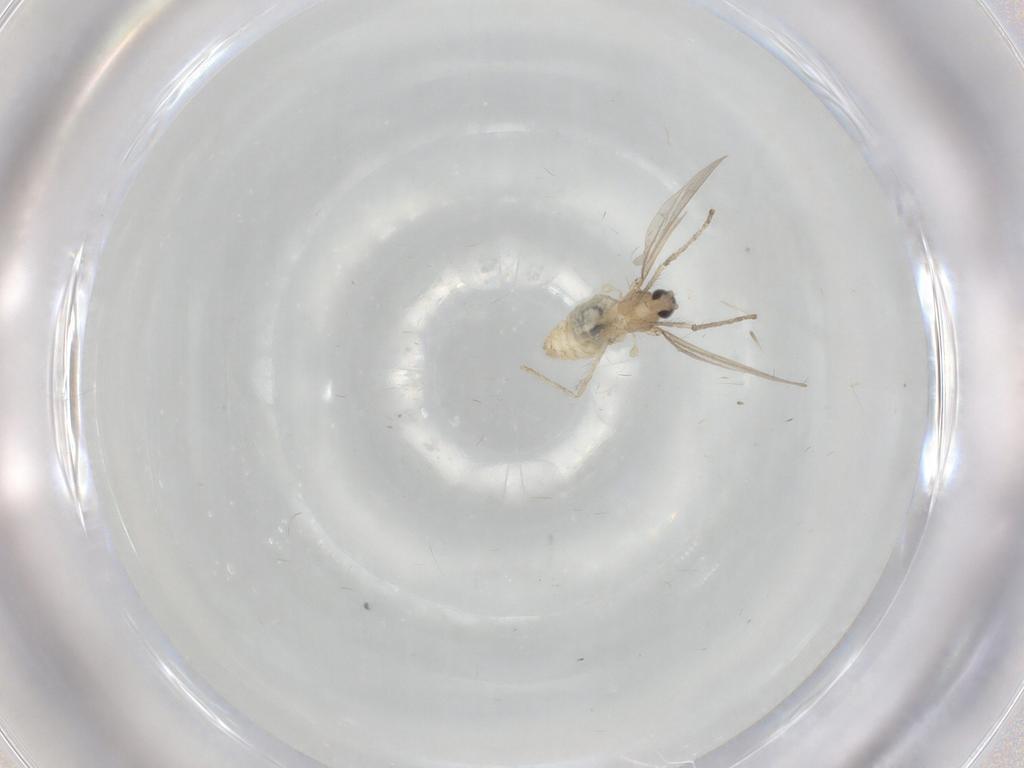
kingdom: Animalia
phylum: Arthropoda
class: Insecta
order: Diptera
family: Cecidomyiidae
